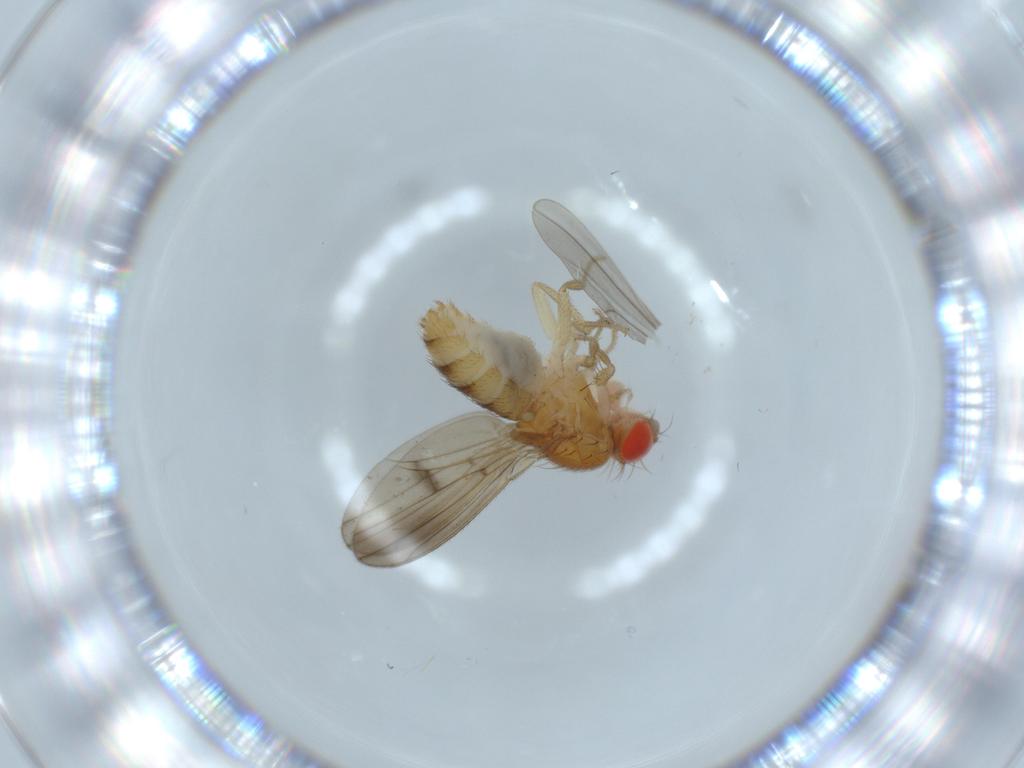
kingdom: Animalia
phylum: Arthropoda
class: Insecta
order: Diptera
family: Drosophilidae
